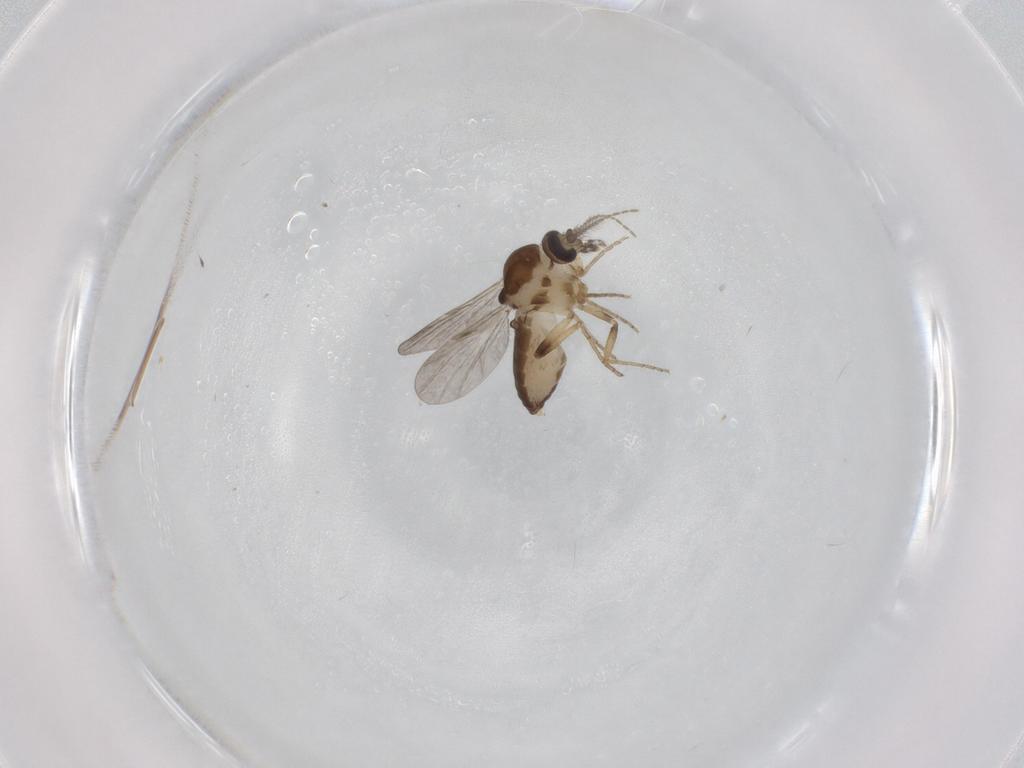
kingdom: Animalia
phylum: Arthropoda
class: Insecta
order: Diptera
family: Ceratopogonidae
